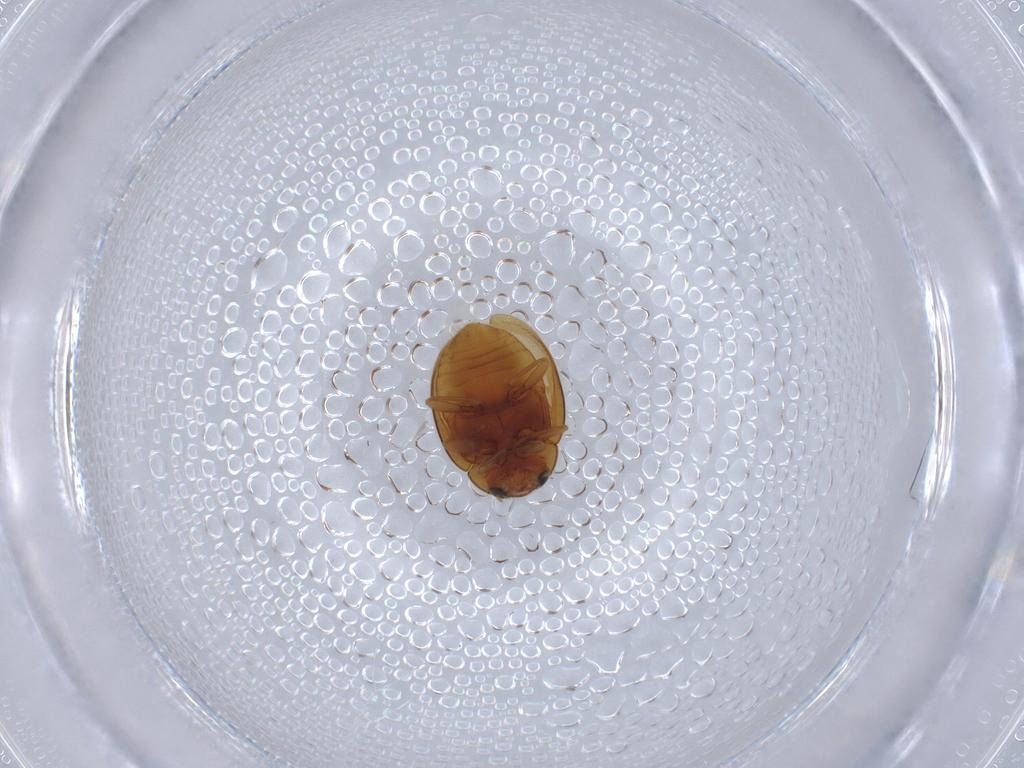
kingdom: Animalia
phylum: Arthropoda
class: Insecta
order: Coleoptera
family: Coccinellidae
